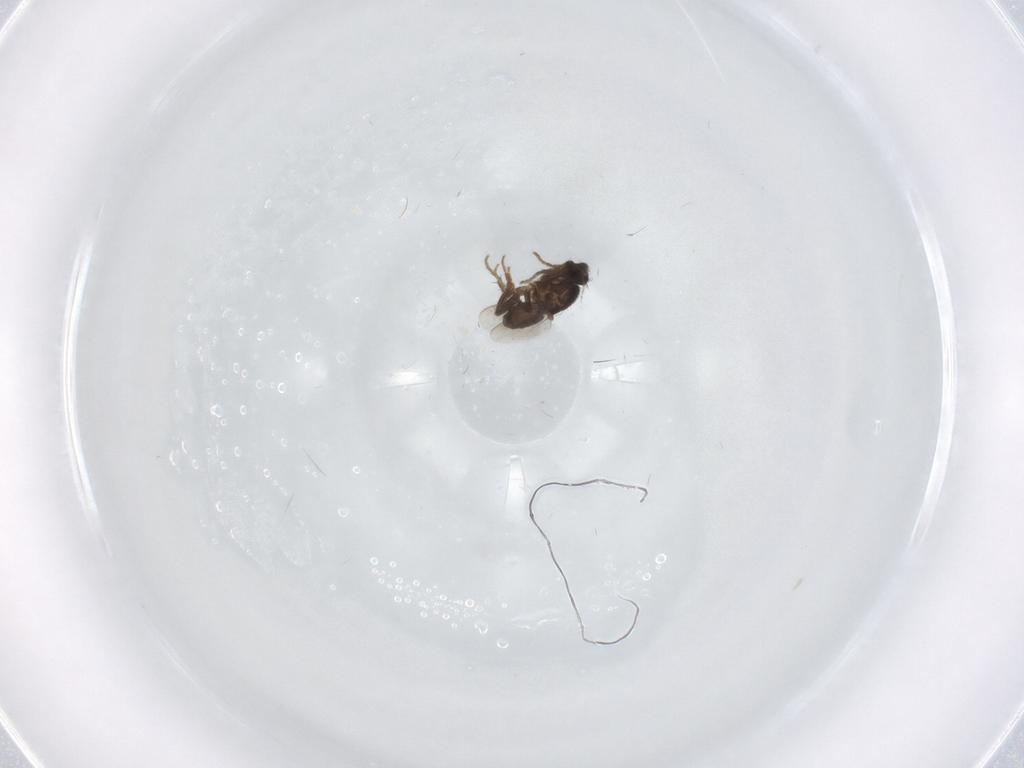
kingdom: Animalia
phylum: Arthropoda
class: Insecta
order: Diptera
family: Chironomidae
